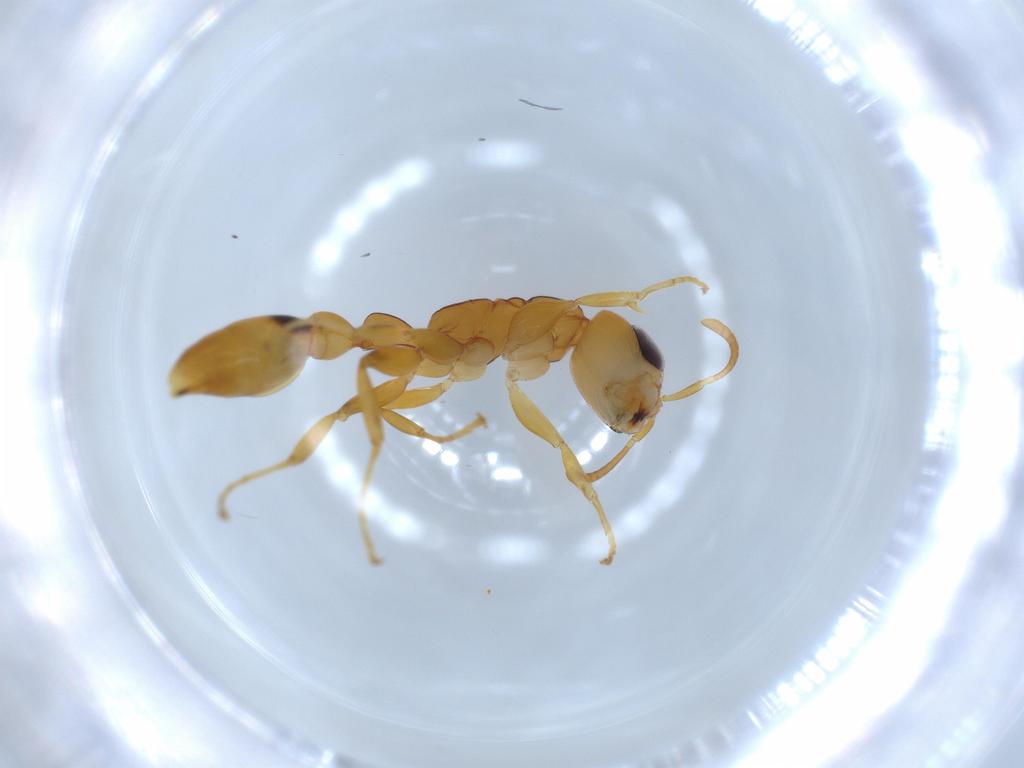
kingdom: Animalia
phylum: Arthropoda
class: Insecta
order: Hymenoptera
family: Formicidae
